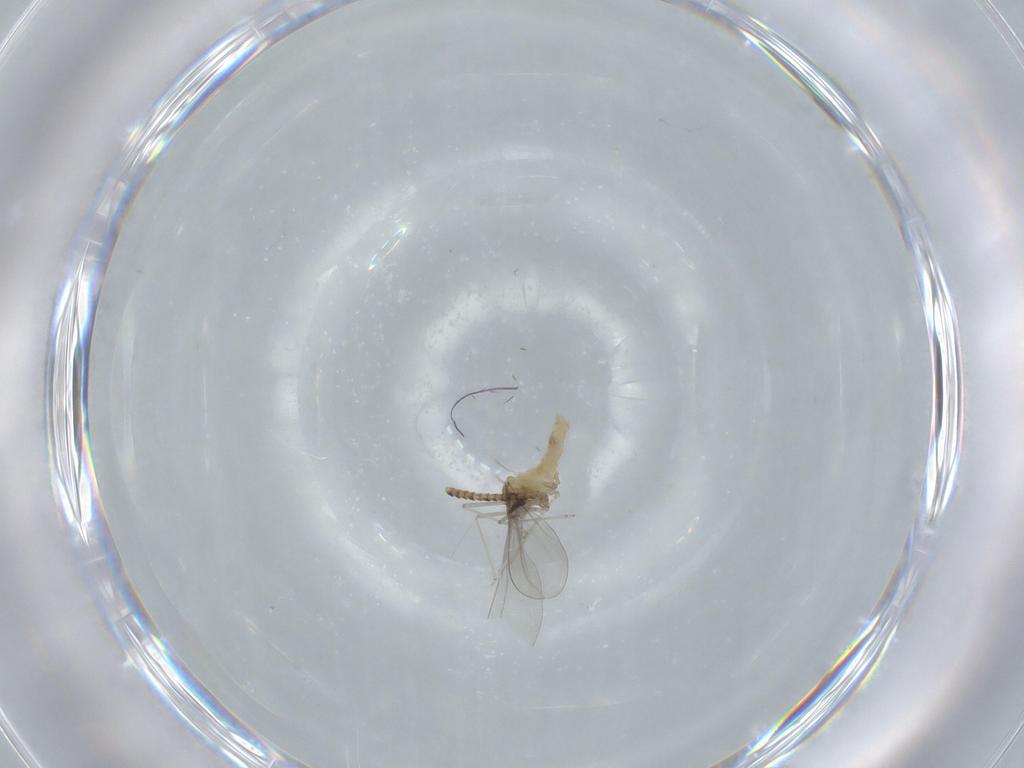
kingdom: Animalia
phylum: Arthropoda
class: Insecta
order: Diptera
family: Cecidomyiidae
